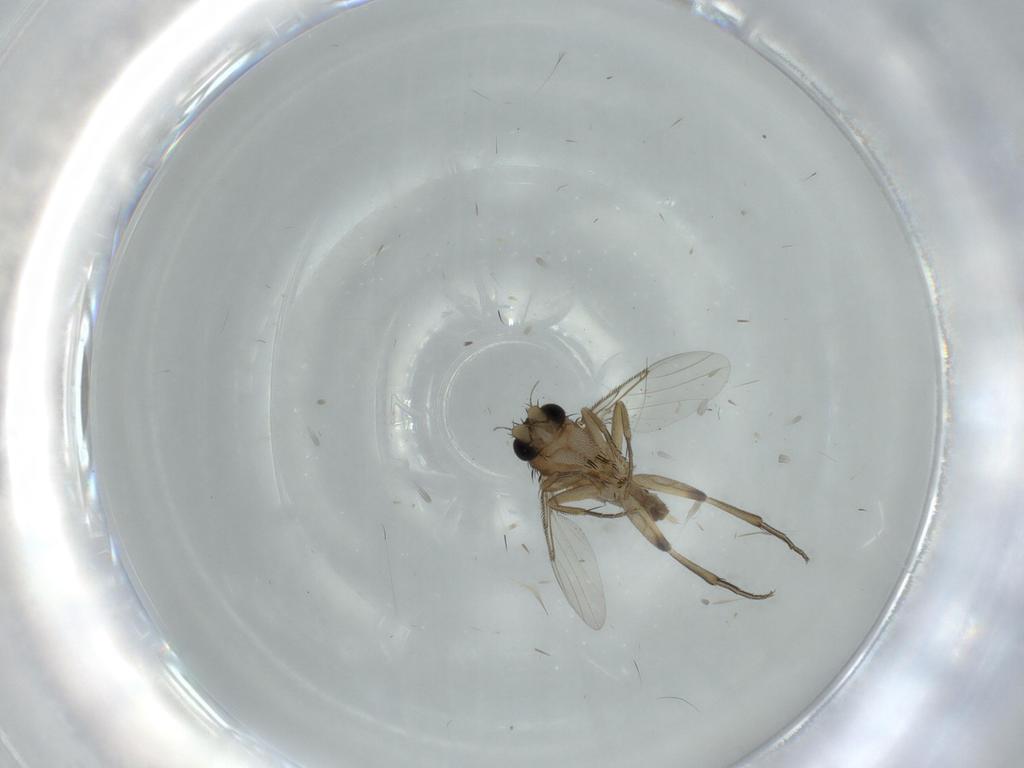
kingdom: Animalia
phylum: Arthropoda
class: Insecta
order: Diptera
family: Phoridae
